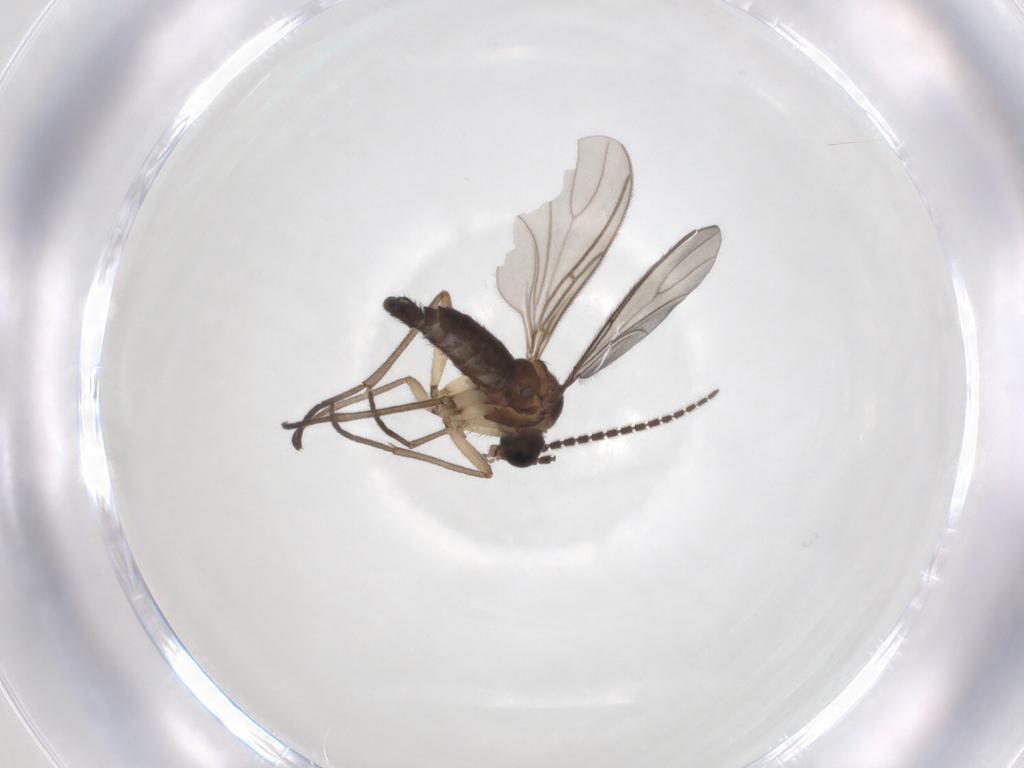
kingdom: Animalia
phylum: Arthropoda
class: Insecta
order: Diptera
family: Sciaridae
